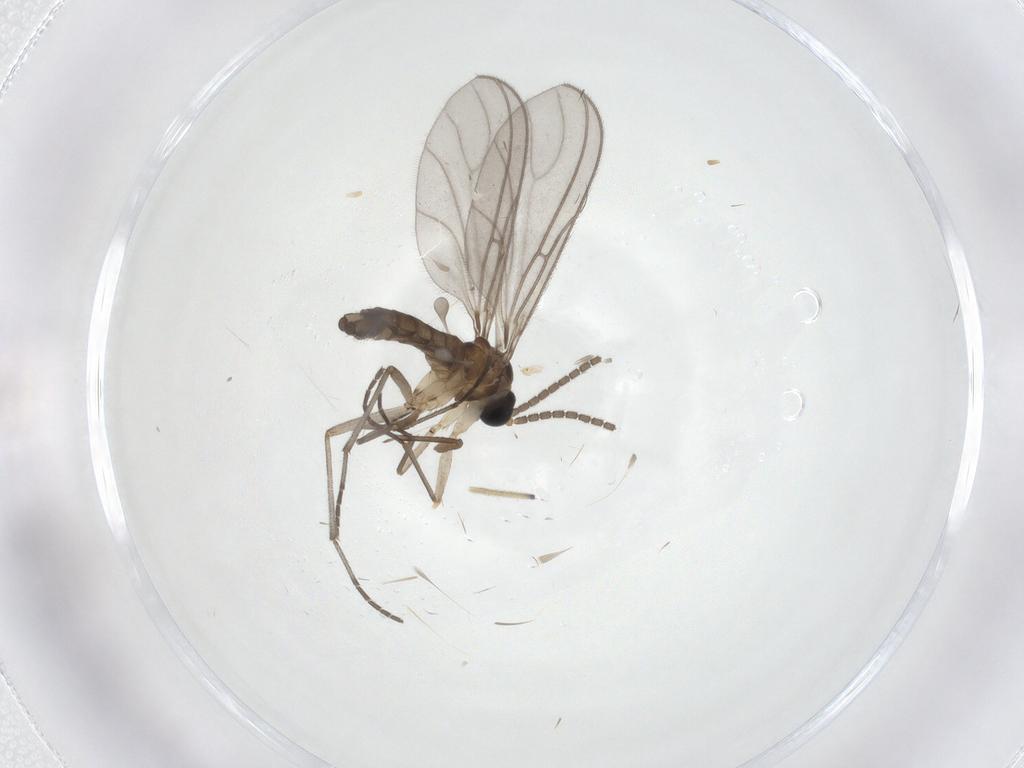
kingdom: Animalia
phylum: Arthropoda
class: Insecta
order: Diptera
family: Sciaridae
